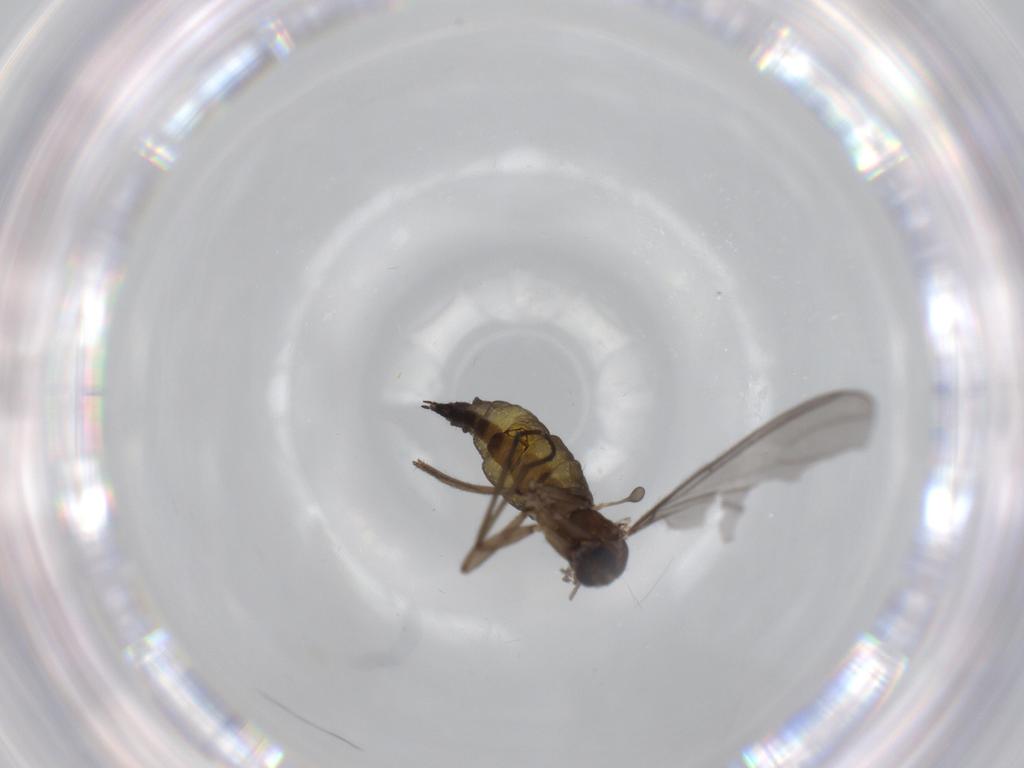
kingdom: Animalia
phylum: Arthropoda
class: Insecta
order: Diptera
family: Sciaridae
